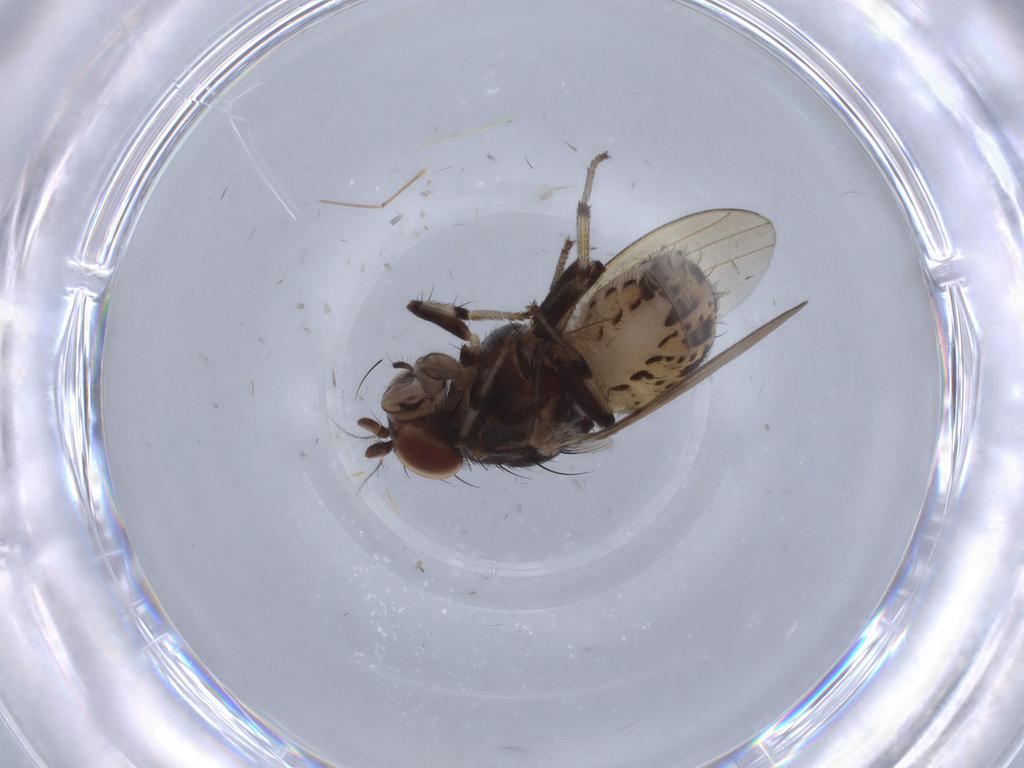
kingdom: Animalia
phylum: Arthropoda
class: Insecta
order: Diptera
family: Chironomidae
